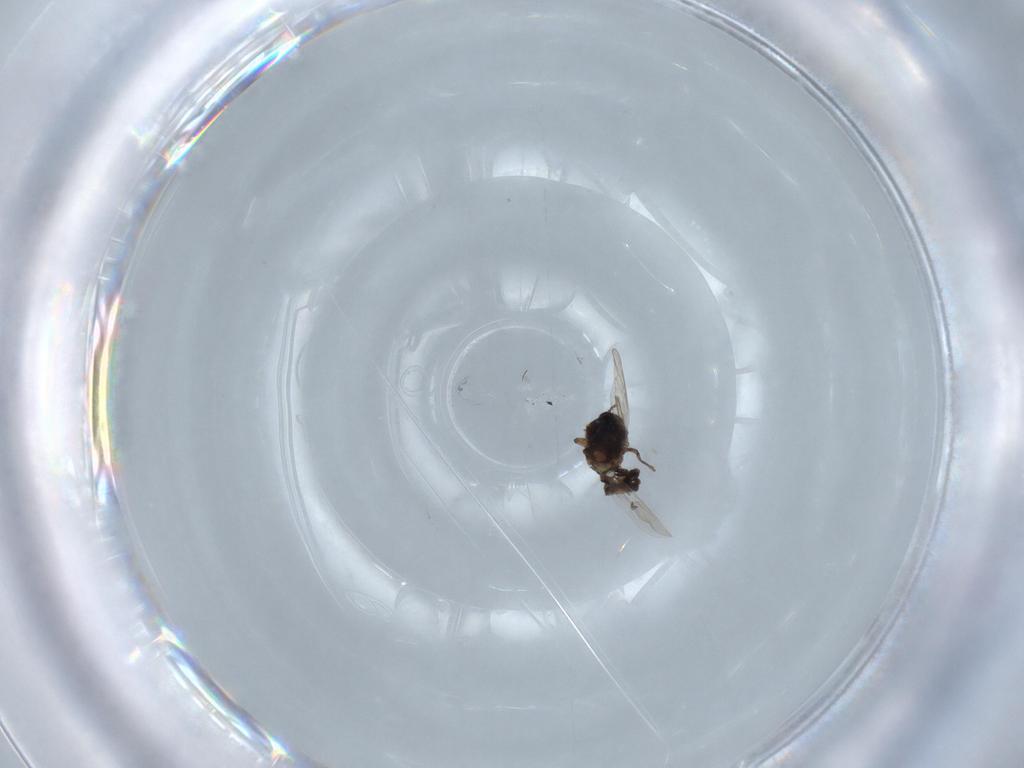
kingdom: Animalia
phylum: Arthropoda
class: Insecta
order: Diptera
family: Ceratopogonidae
